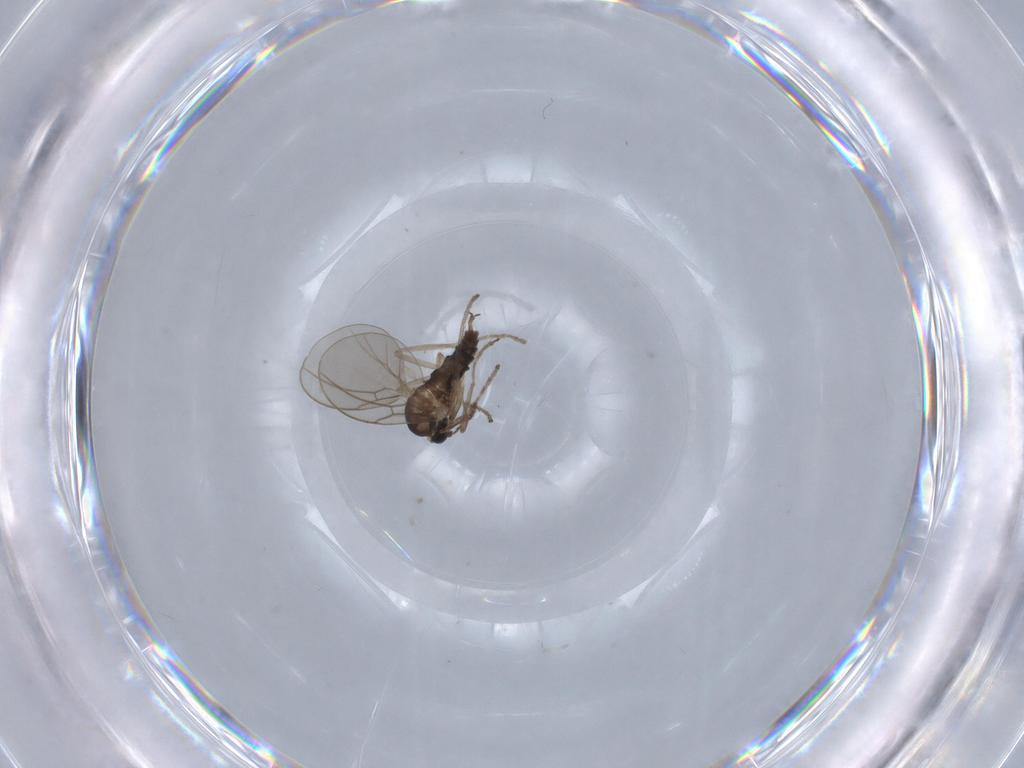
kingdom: Animalia
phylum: Arthropoda
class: Insecta
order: Diptera
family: Cecidomyiidae
